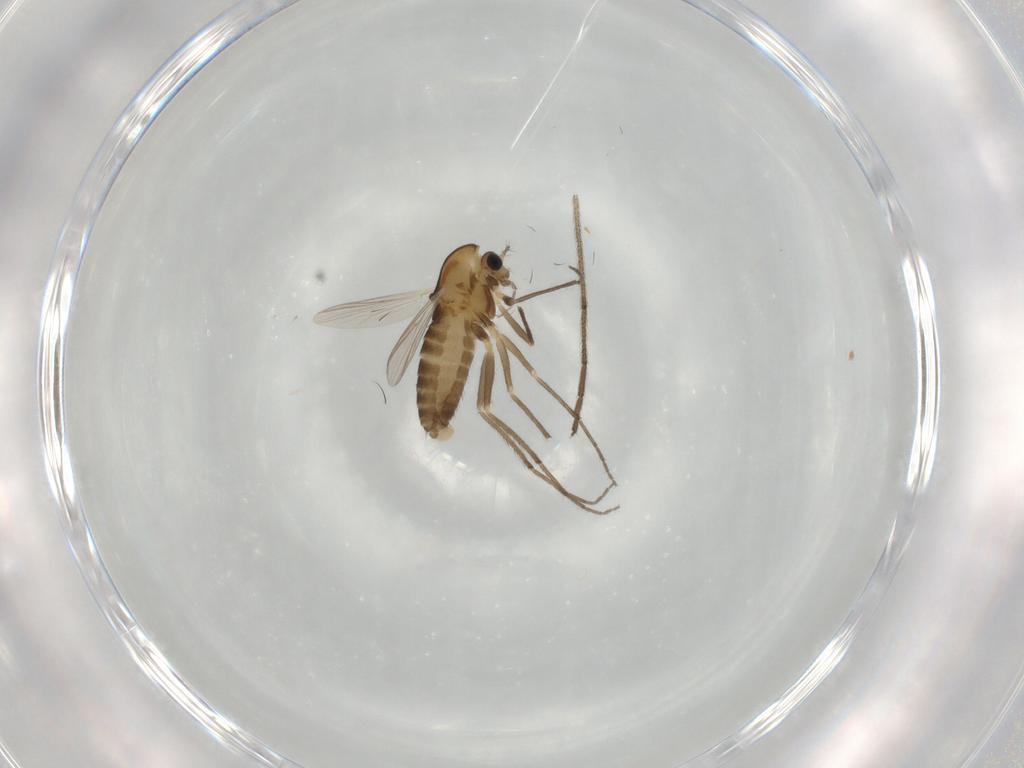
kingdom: Animalia
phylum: Arthropoda
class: Insecta
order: Diptera
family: Chironomidae
